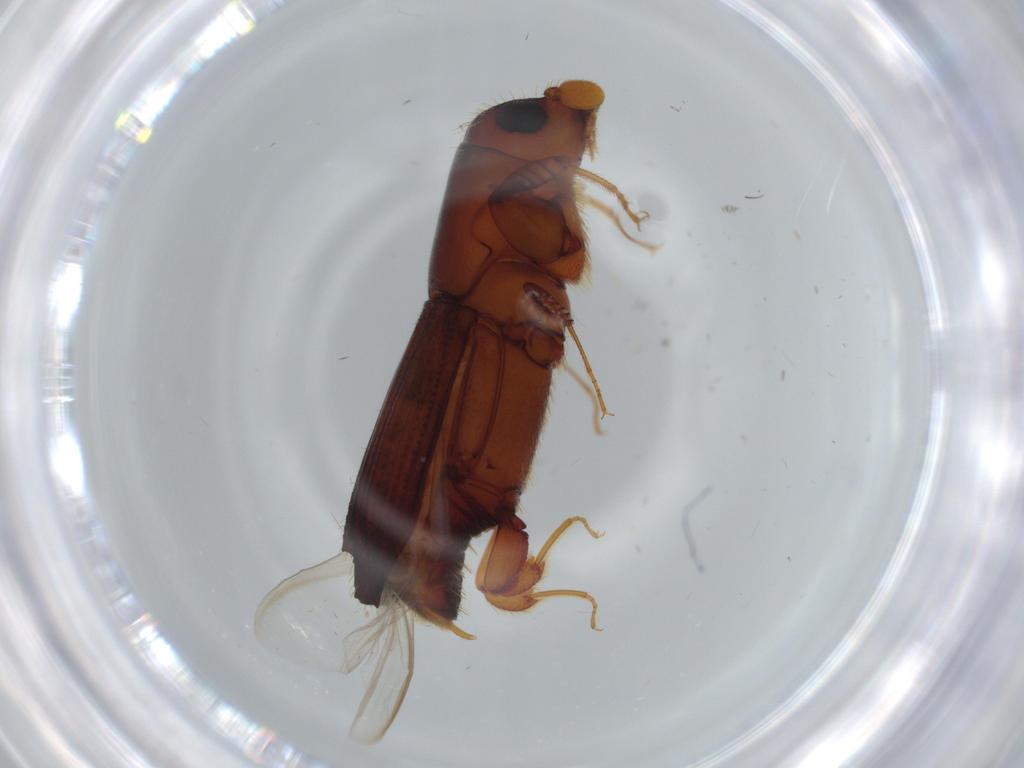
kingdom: Animalia
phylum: Arthropoda
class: Insecta
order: Coleoptera
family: Curculionidae
